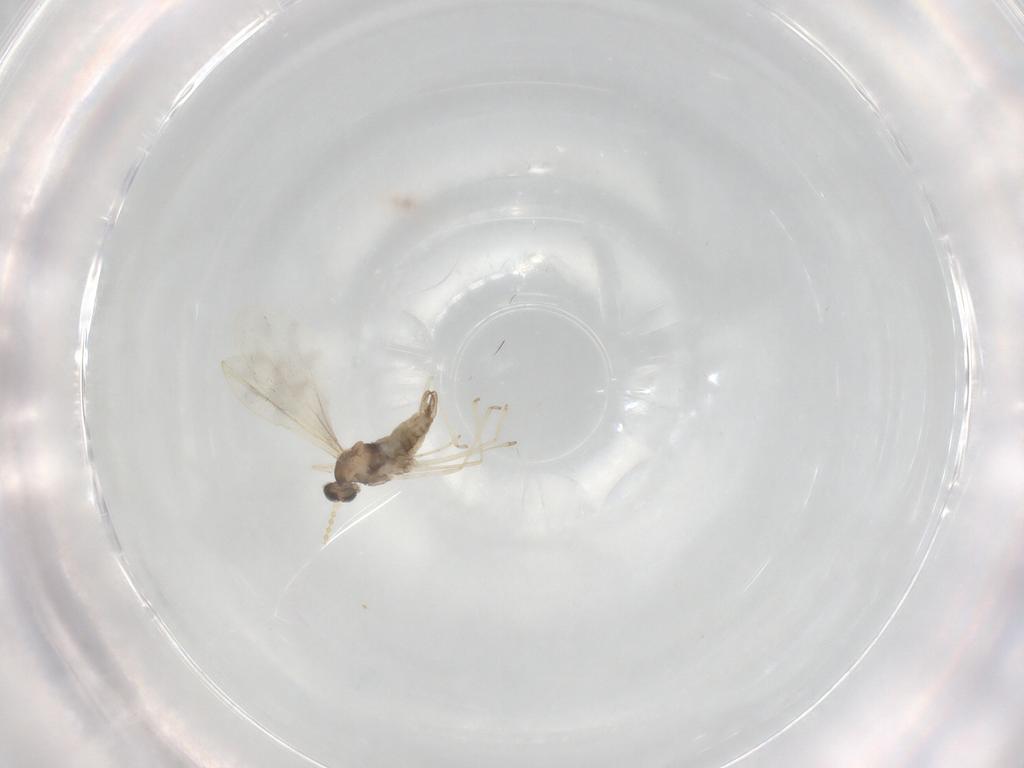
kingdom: Animalia
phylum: Arthropoda
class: Insecta
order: Diptera
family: Cecidomyiidae
